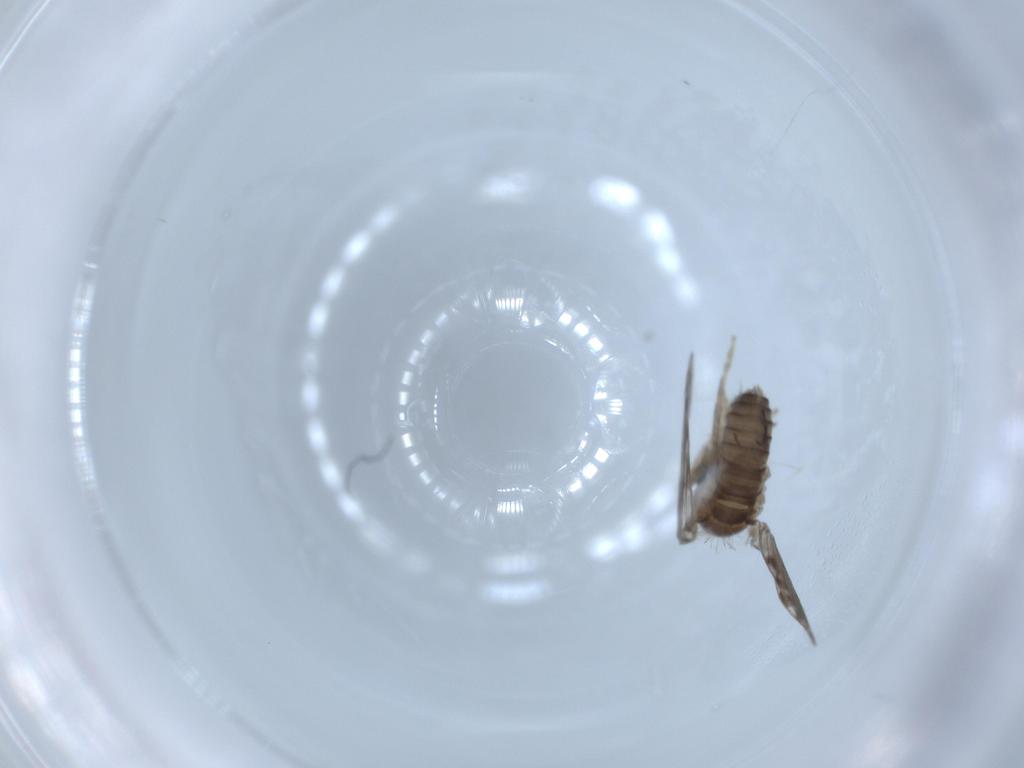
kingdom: Animalia
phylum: Arthropoda
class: Insecta
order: Diptera
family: Psychodidae
